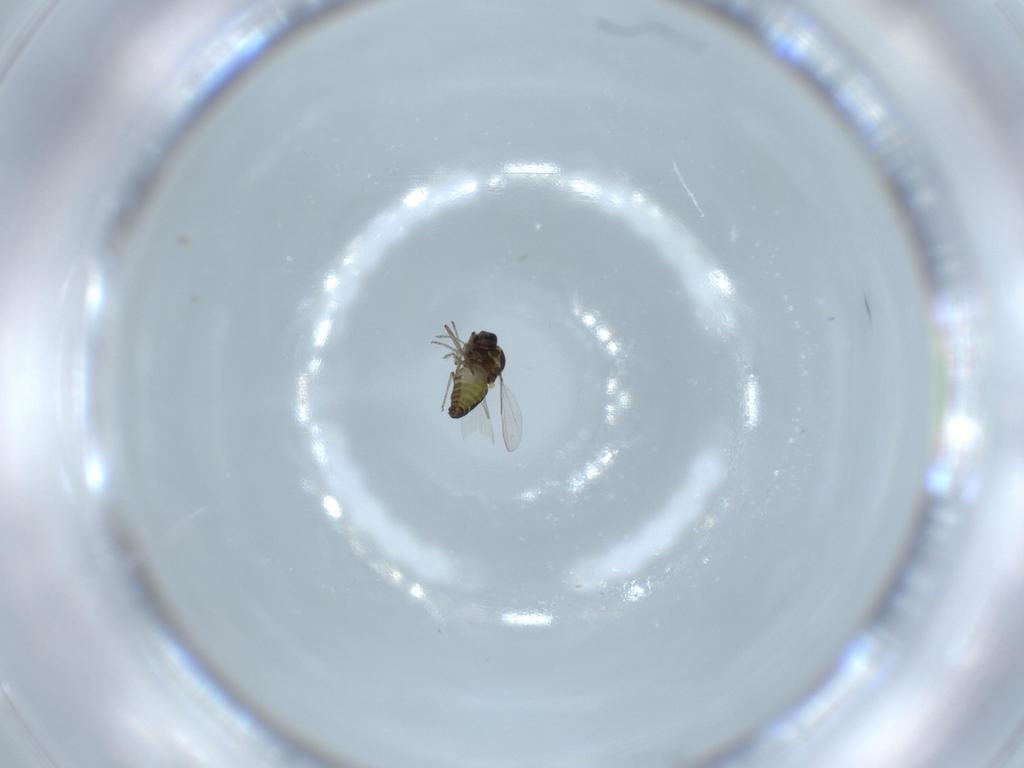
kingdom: Animalia
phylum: Arthropoda
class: Insecta
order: Diptera
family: Ceratopogonidae
